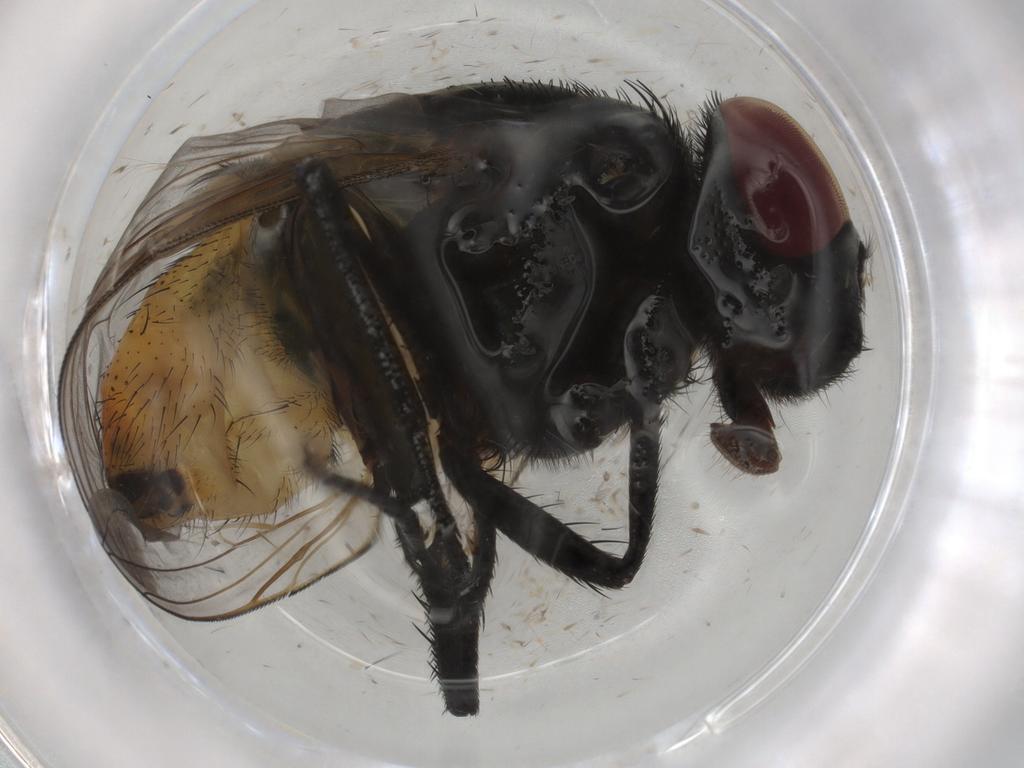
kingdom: Animalia
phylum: Arthropoda
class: Insecta
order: Diptera
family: Muscidae
